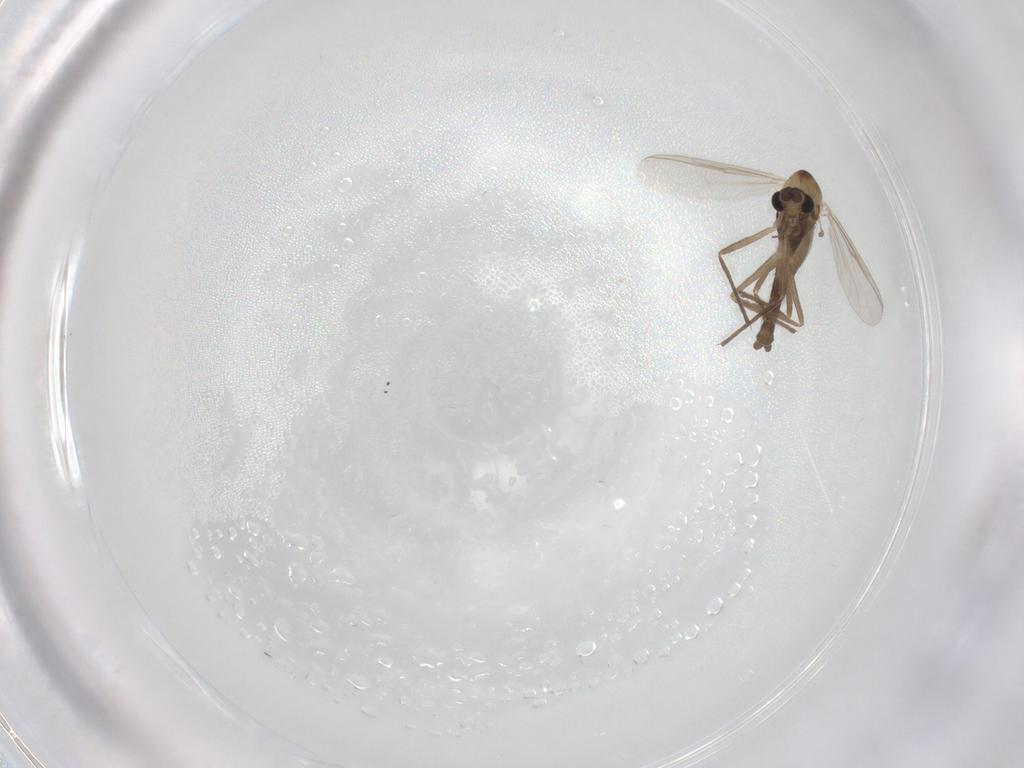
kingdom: Animalia
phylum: Arthropoda
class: Insecta
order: Diptera
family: Chironomidae
